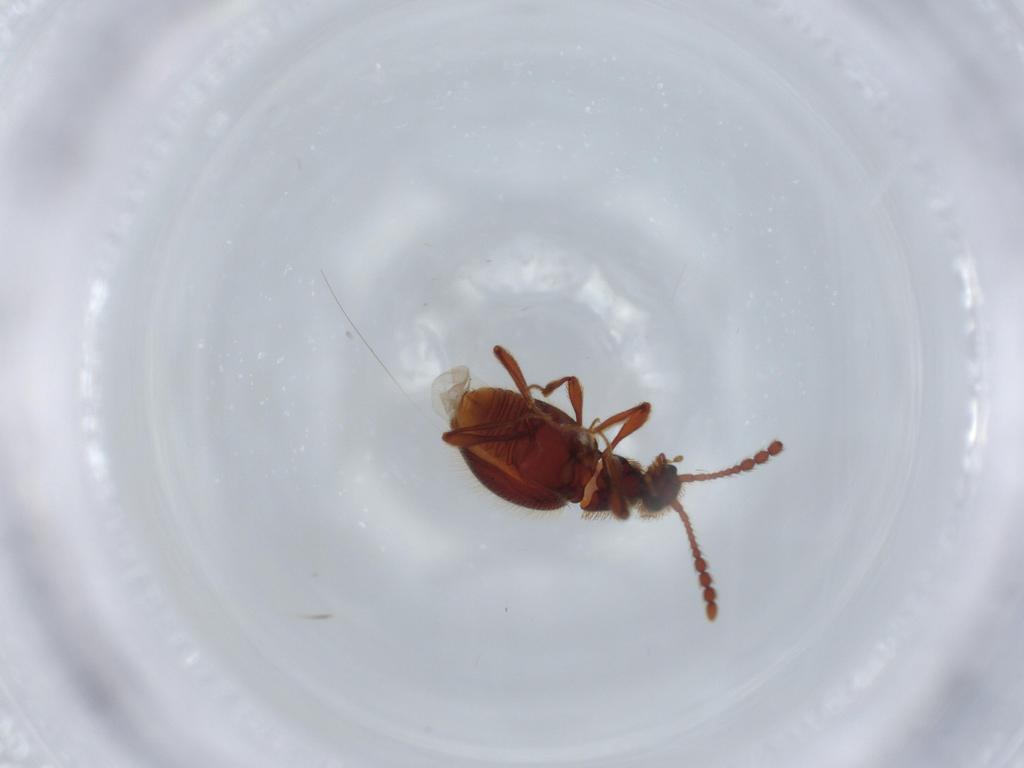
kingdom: Animalia
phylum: Arthropoda
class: Insecta
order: Coleoptera
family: Staphylinidae
